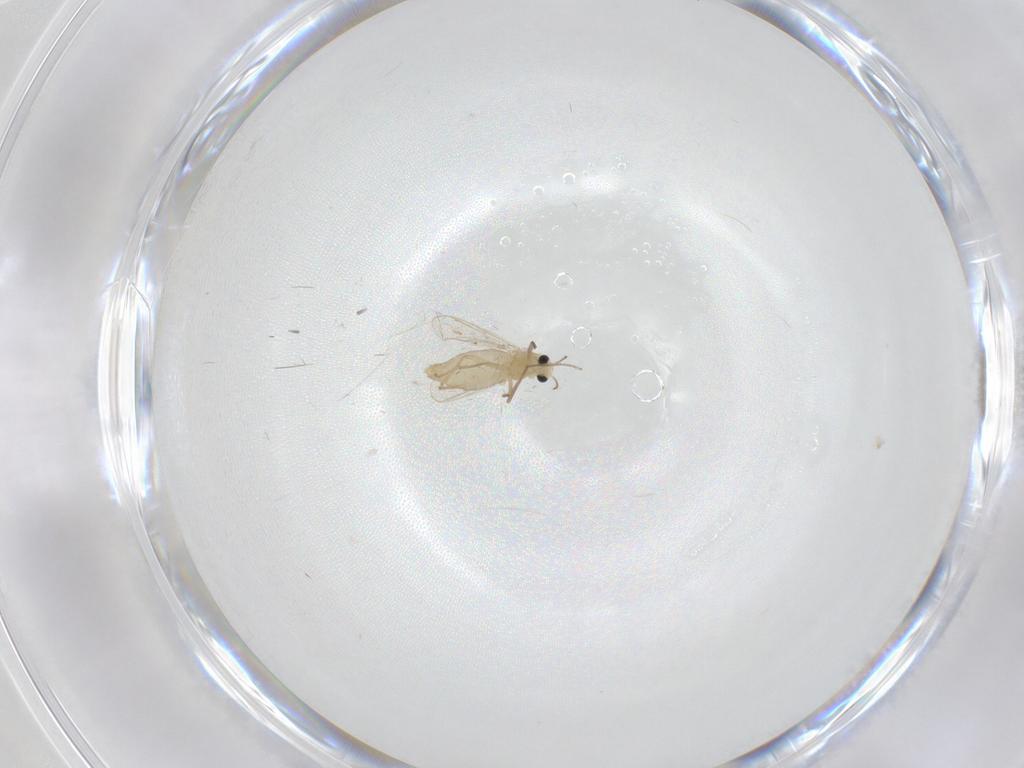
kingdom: Animalia
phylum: Arthropoda
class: Insecta
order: Diptera
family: Chironomidae
